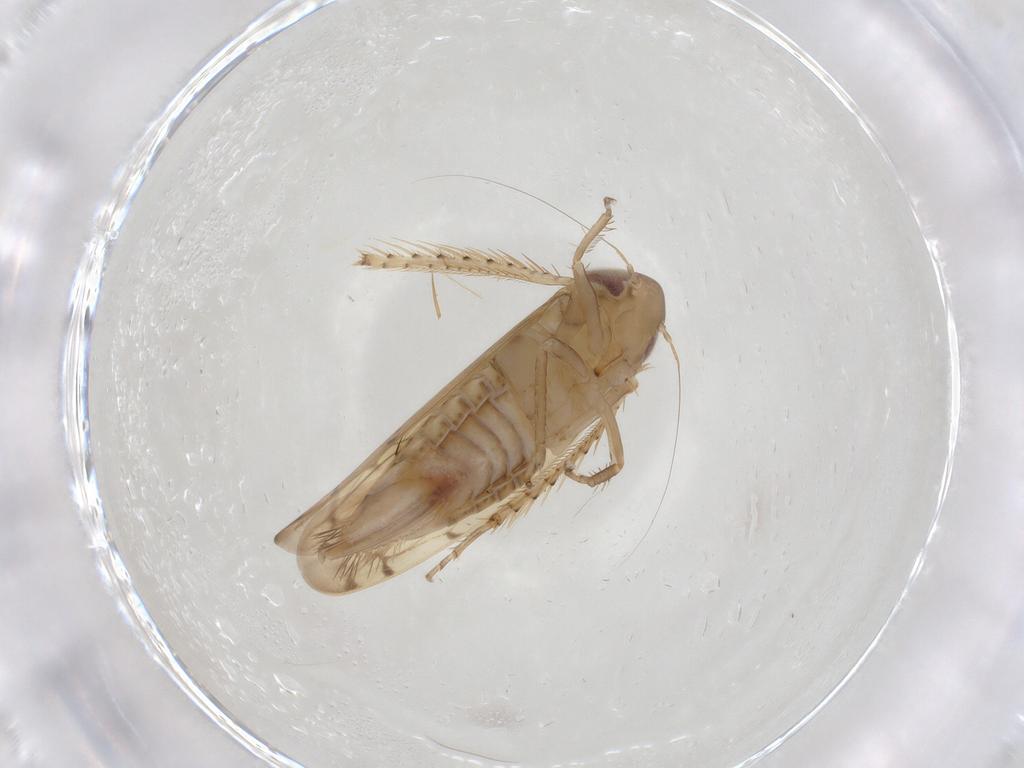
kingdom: Animalia
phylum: Arthropoda
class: Insecta
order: Hemiptera
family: Cicadellidae
